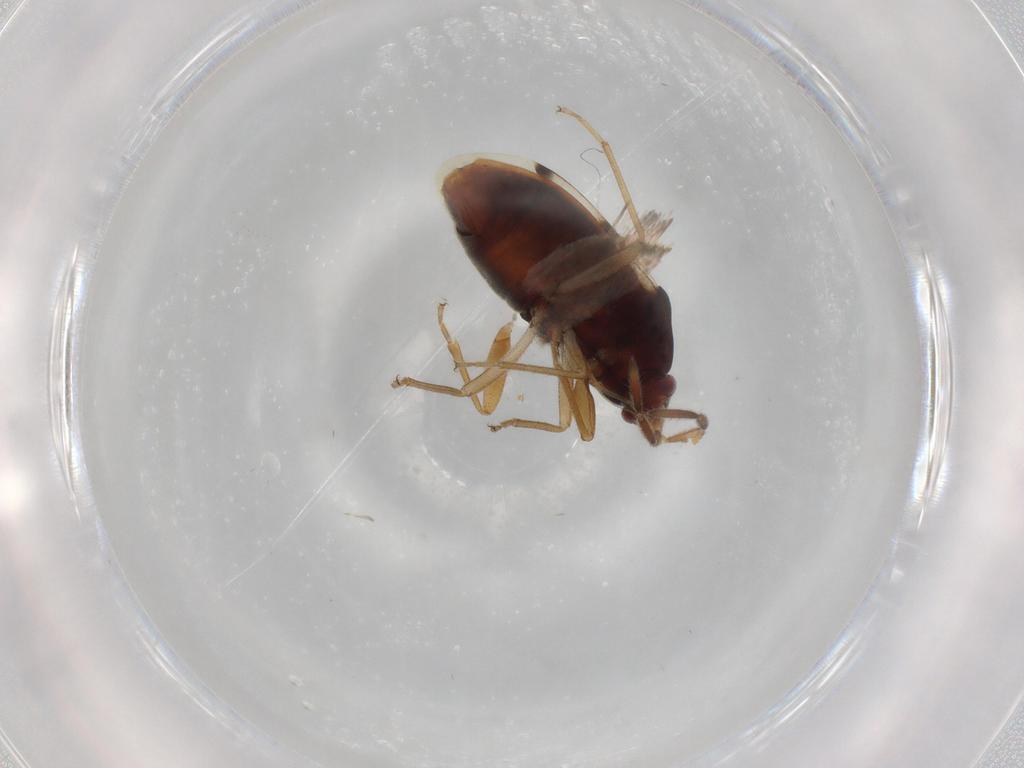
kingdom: Animalia
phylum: Arthropoda
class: Insecta
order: Hemiptera
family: Rhyparochromidae
